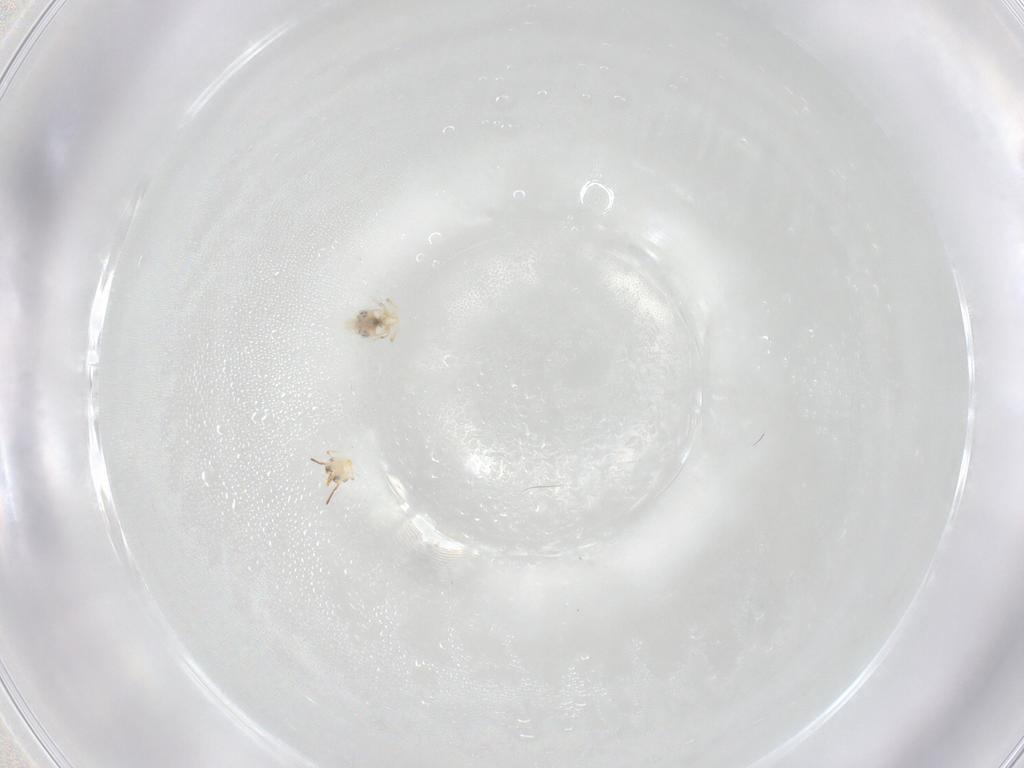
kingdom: Animalia
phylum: Arthropoda
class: Collembola
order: Symphypleona
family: Bourletiellidae
